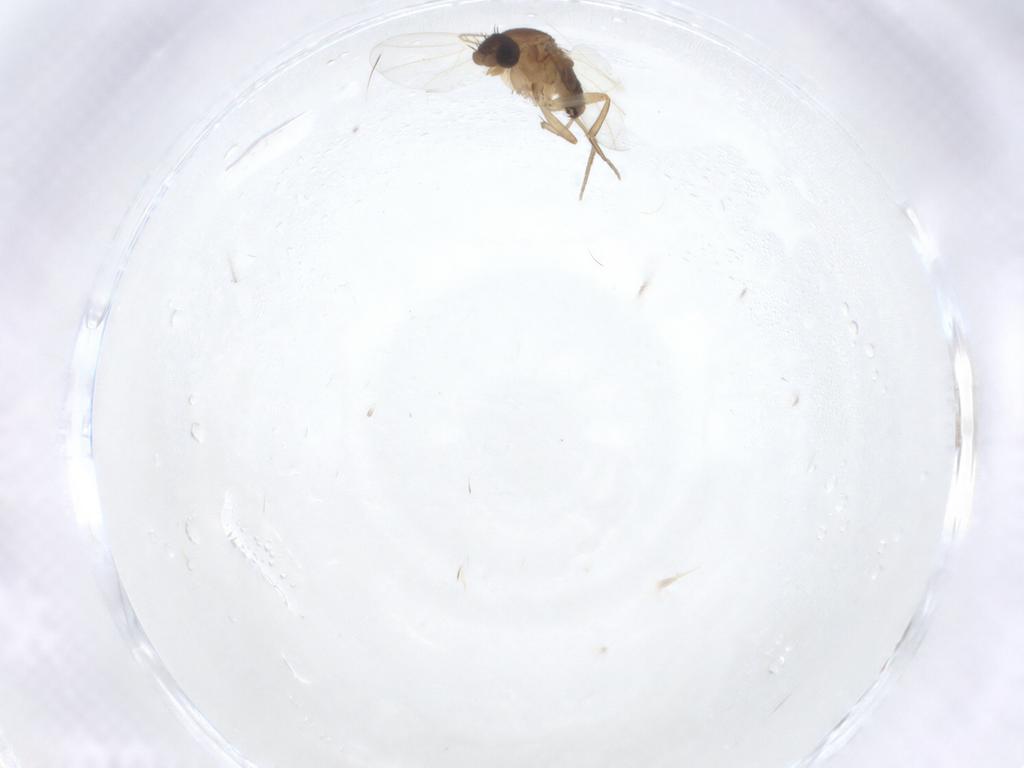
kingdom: Animalia
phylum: Arthropoda
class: Insecta
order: Diptera
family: Phoridae
